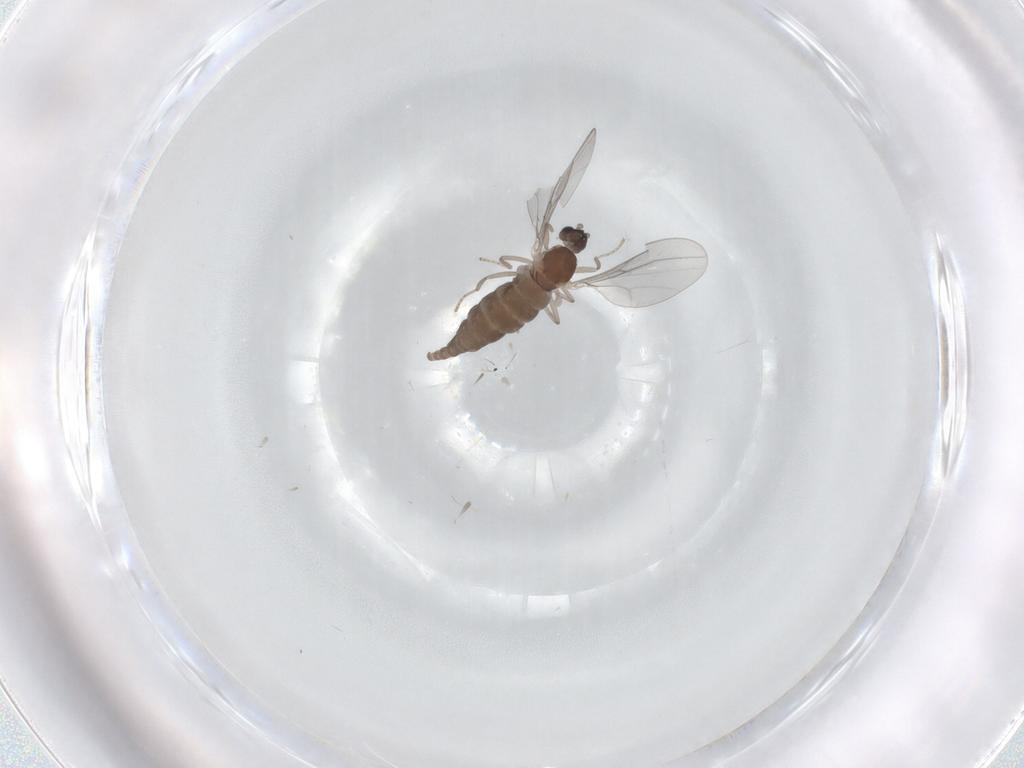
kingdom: Animalia
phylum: Arthropoda
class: Insecta
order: Diptera
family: Cecidomyiidae
